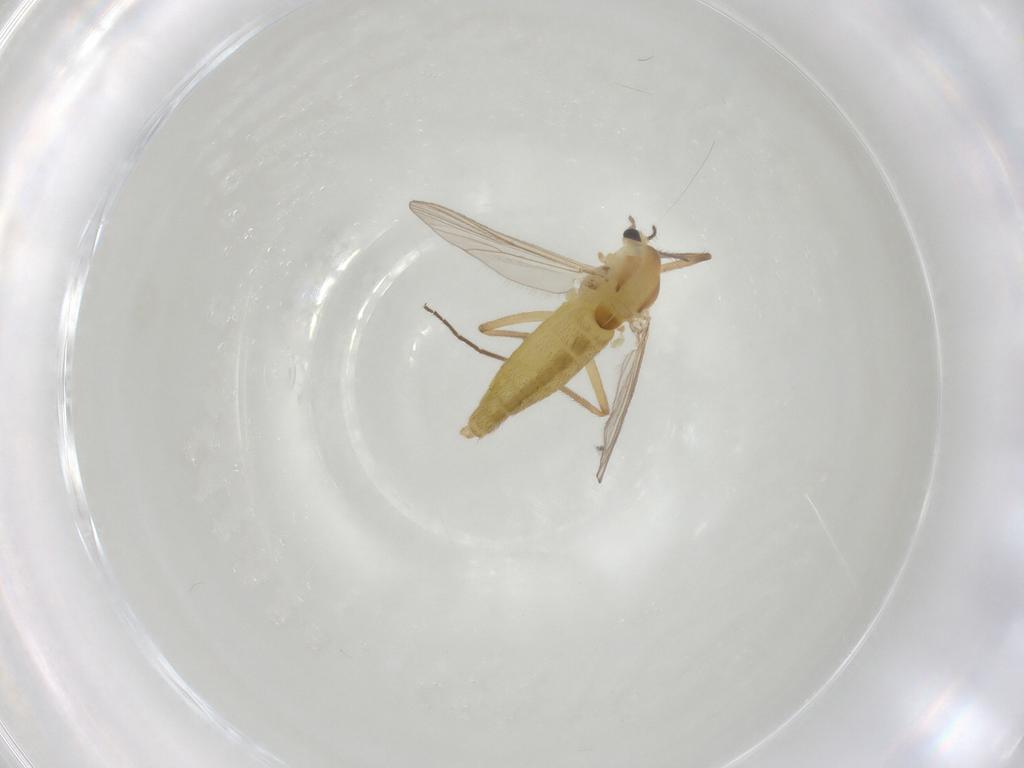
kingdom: Animalia
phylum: Arthropoda
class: Insecta
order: Diptera
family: Chironomidae
